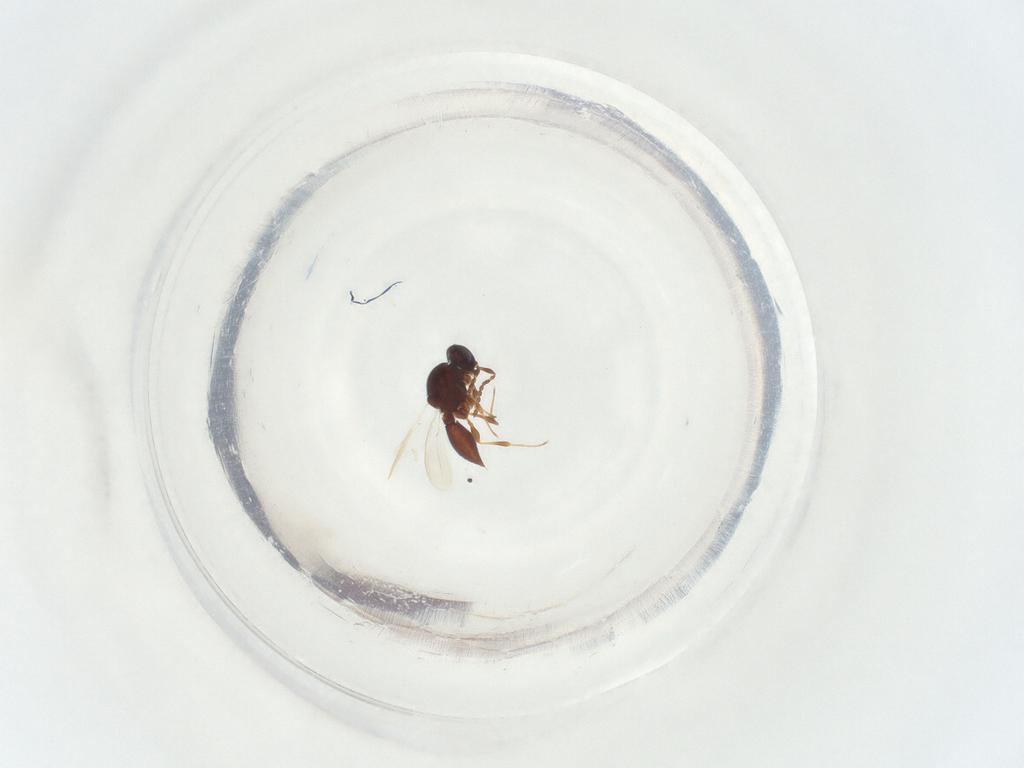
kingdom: Animalia
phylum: Arthropoda
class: Insecta
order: Hymenoptera
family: Platygastridae
